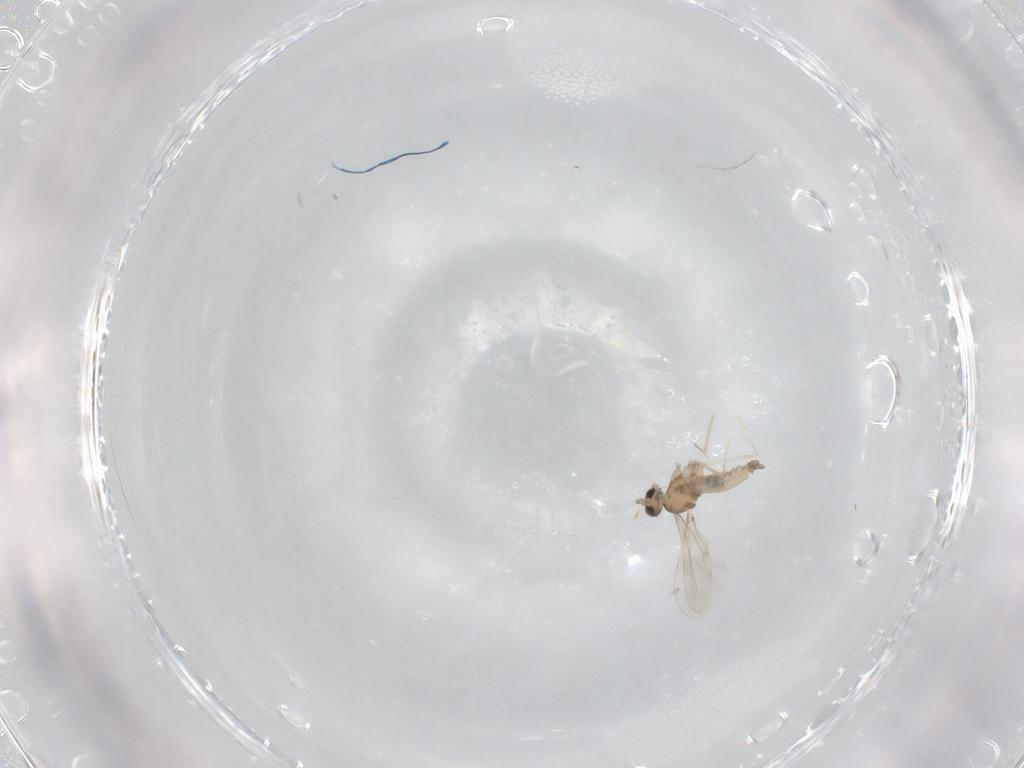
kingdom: Animalia
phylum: Arthropoda
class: Insecta
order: Diptera
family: Cecidomyiidae
